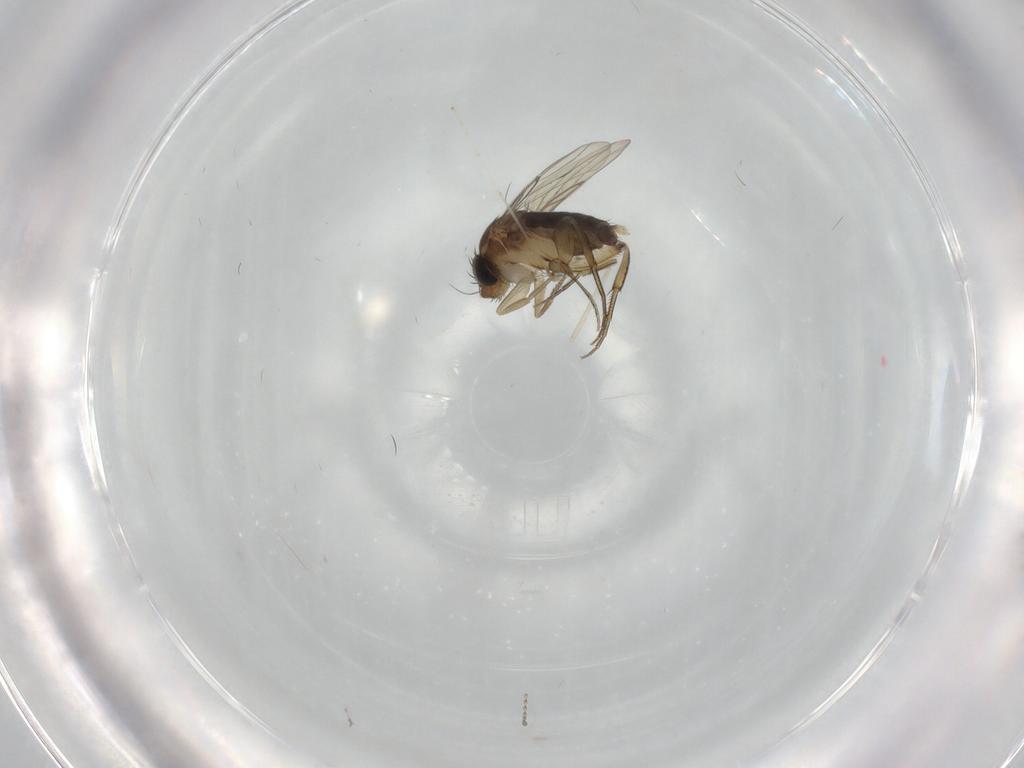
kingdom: Animalia
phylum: Arthropoda
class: Insecta
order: Diptera
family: Phoridae
